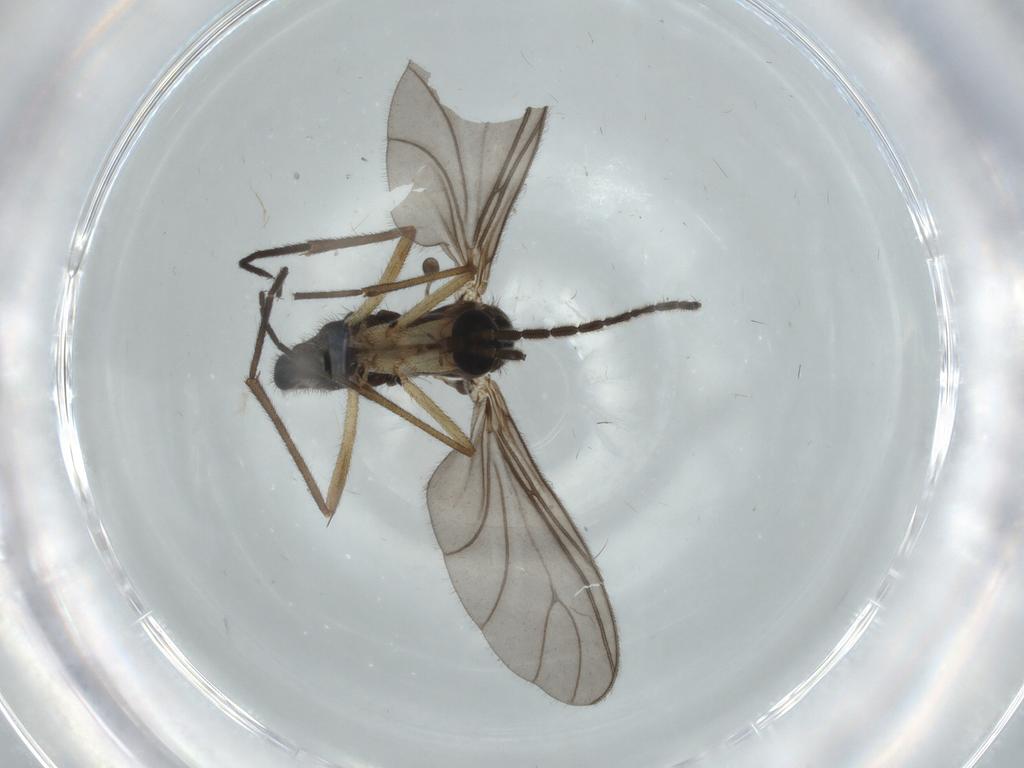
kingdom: Animalia
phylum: Arthropoda
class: Insecta
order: Diptera
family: Sciaridae
